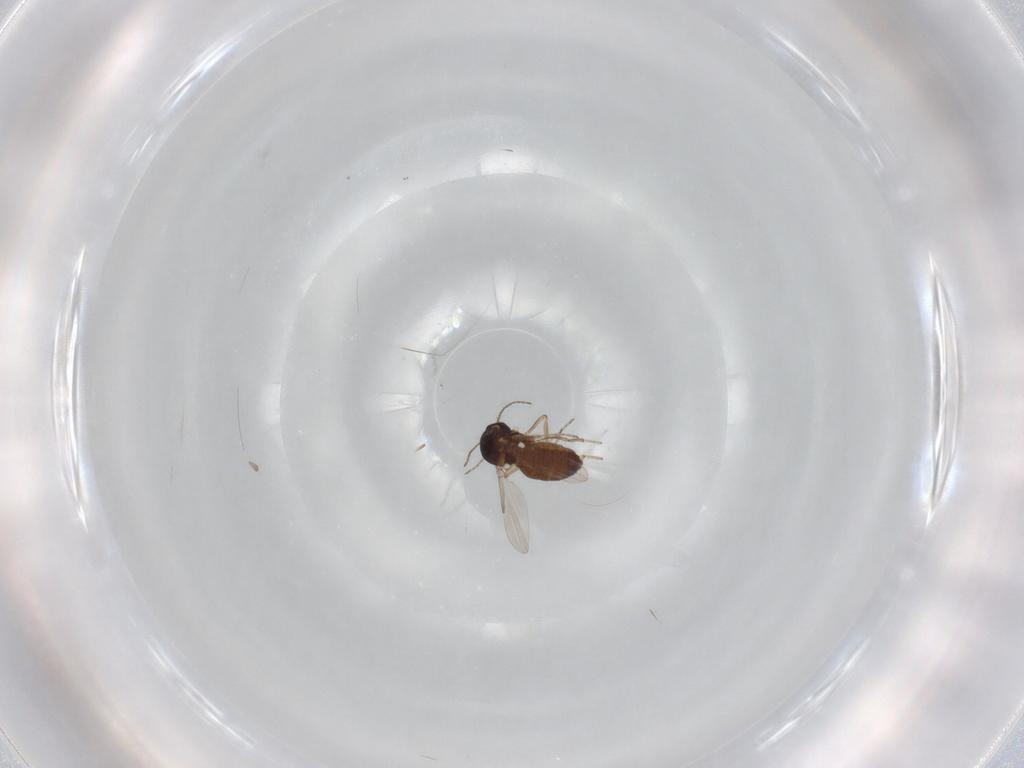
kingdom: Animalia
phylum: Arthropoda
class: Insecta
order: Diptera
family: Ceratopogonidae
